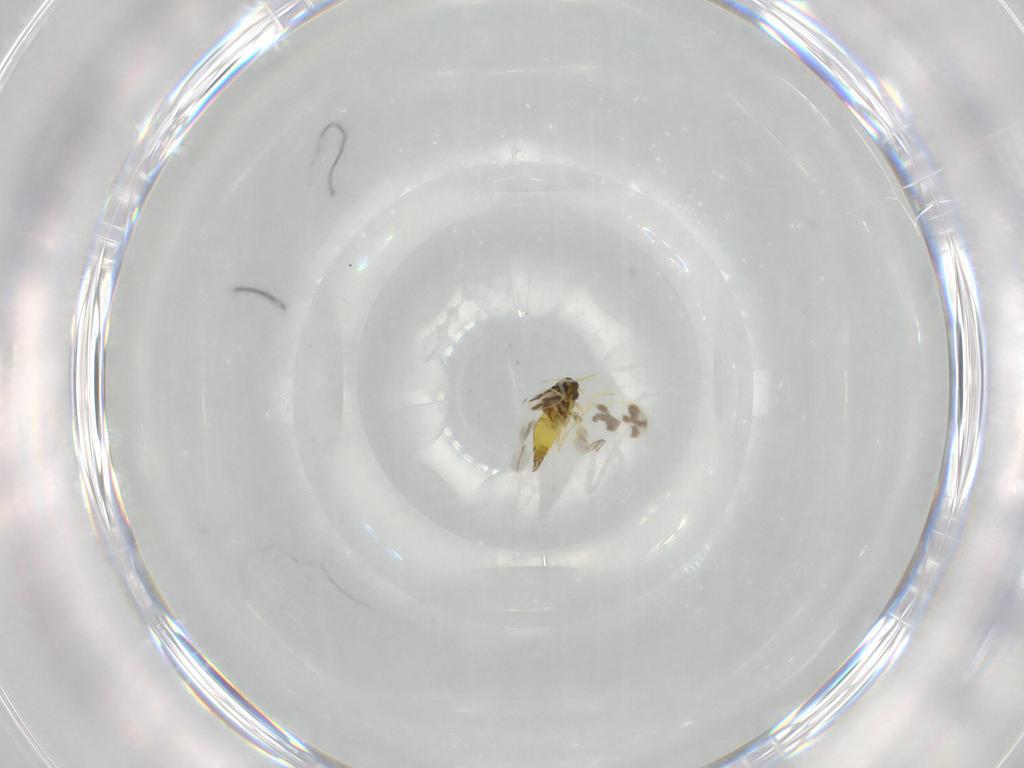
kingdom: Animalia
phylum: Arthropoda
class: Insecta
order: Hemiptera
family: Aleyrodidae
